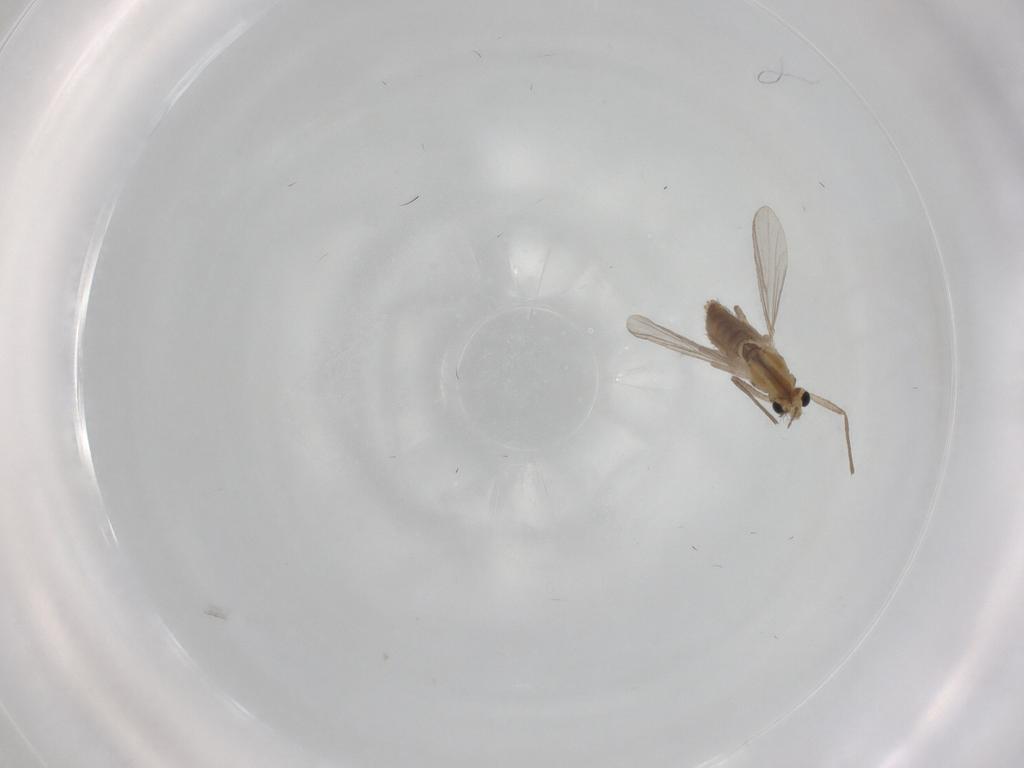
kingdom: Animalia
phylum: Arthropoda
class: Insecta
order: Diptera
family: Chironomidae
